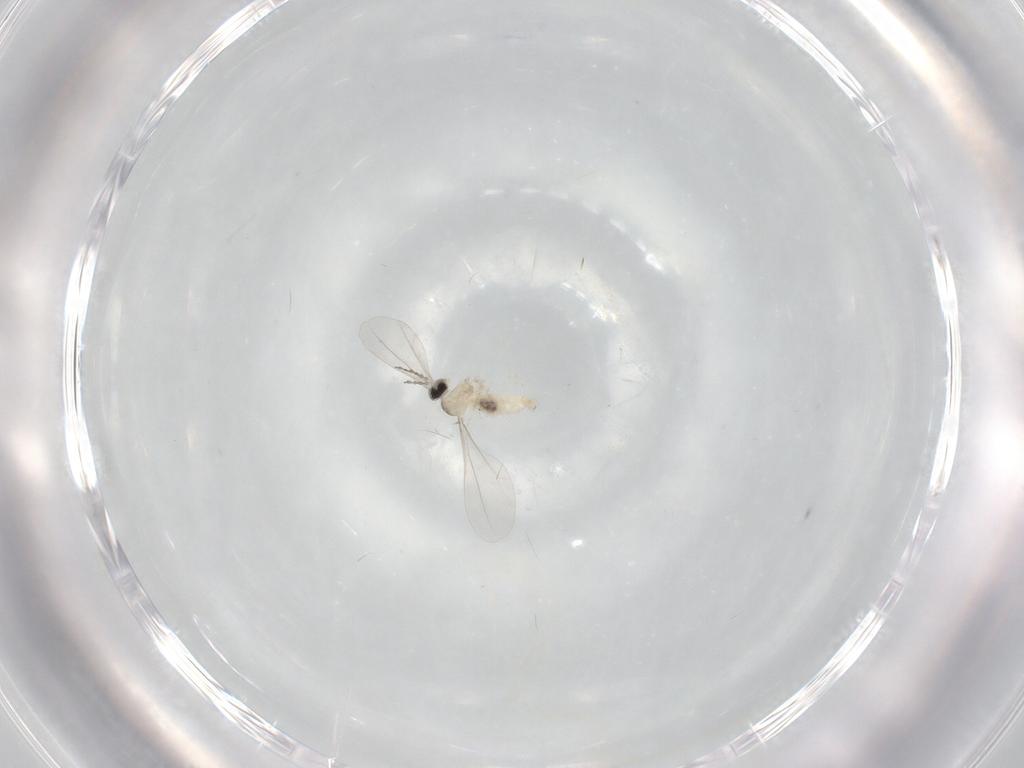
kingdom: Animalia
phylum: Arthropoda
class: Insecta
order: Diptera
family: Cecidomyiidae
